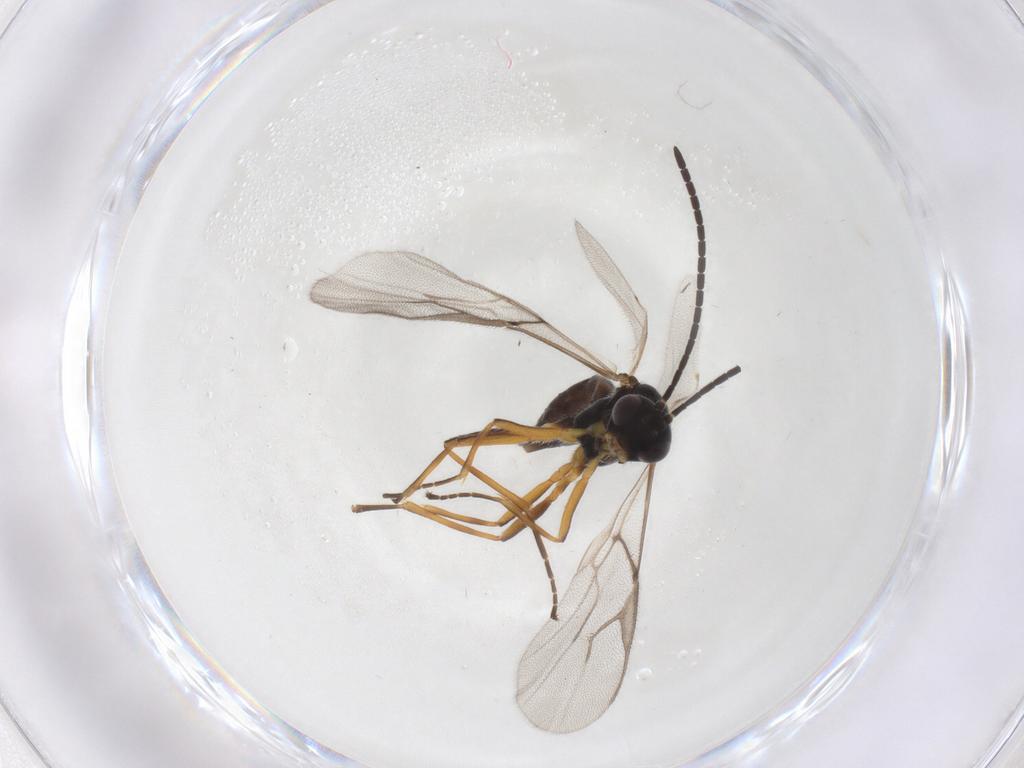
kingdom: Animalia
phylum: Arthropoda
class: Insecta
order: Hymenoptera
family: Braconidae
